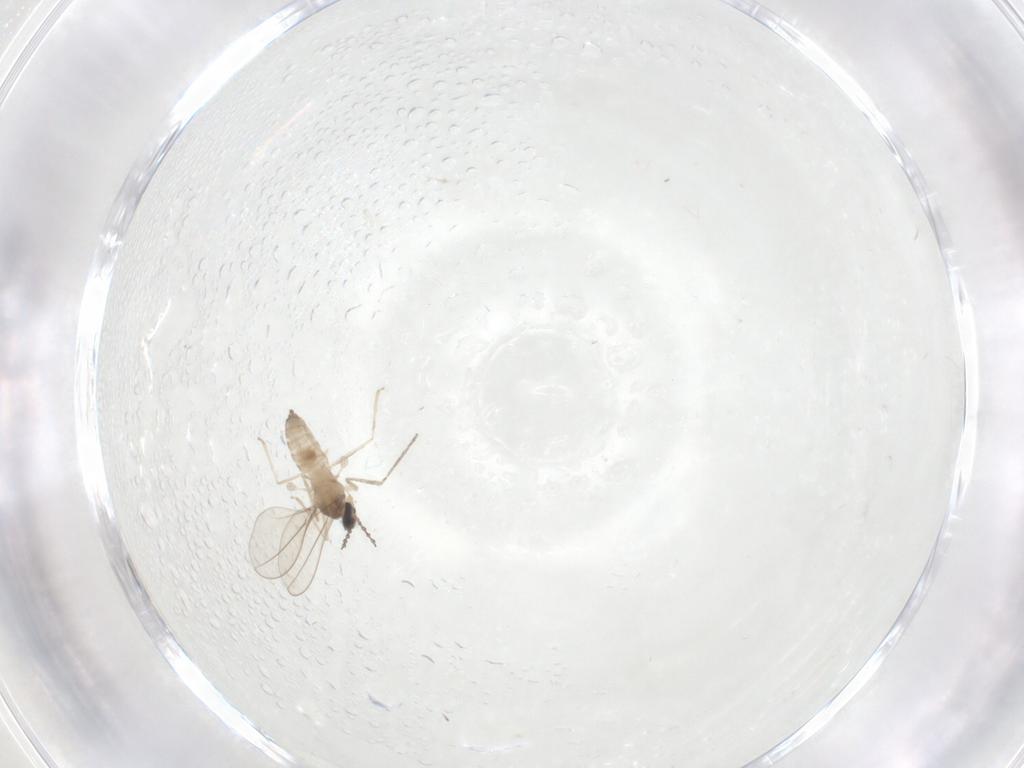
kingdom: Animalia
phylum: Arthropoda
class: Insecta
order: Diptera
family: Cecidomyiidae
